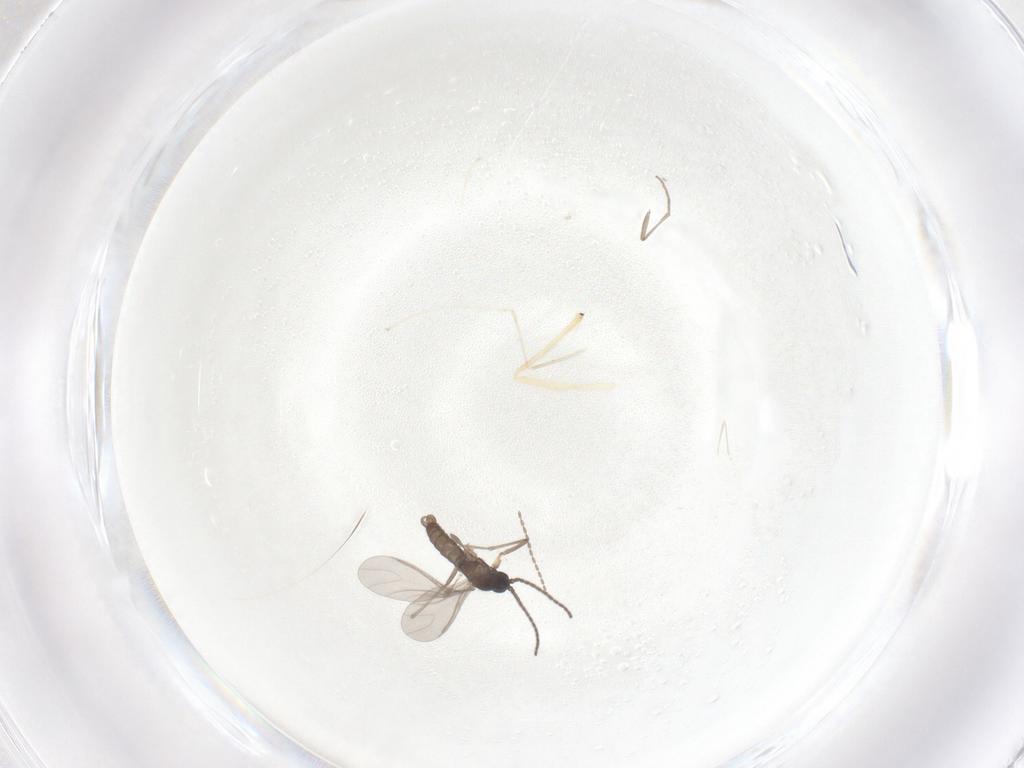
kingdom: Animalia
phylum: Arthropoda
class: Insecta
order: Diptera
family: Sciaridae
